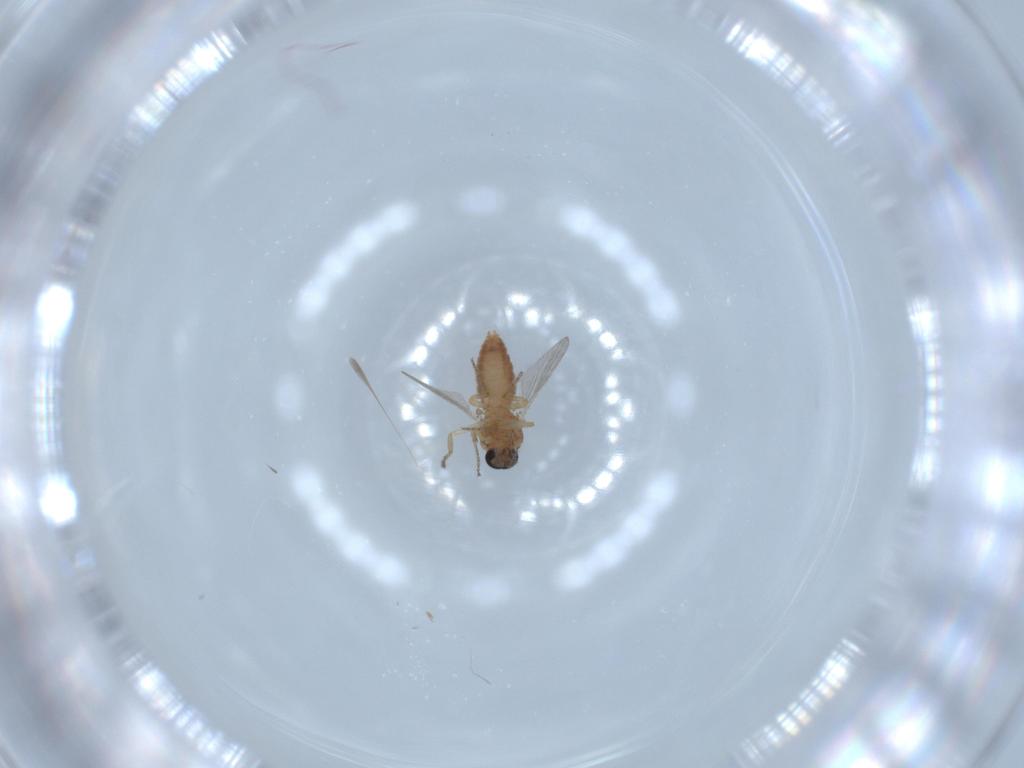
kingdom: Animalia
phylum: Arthropoda
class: Insecta
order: Diptera
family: Ceratopogonidae
